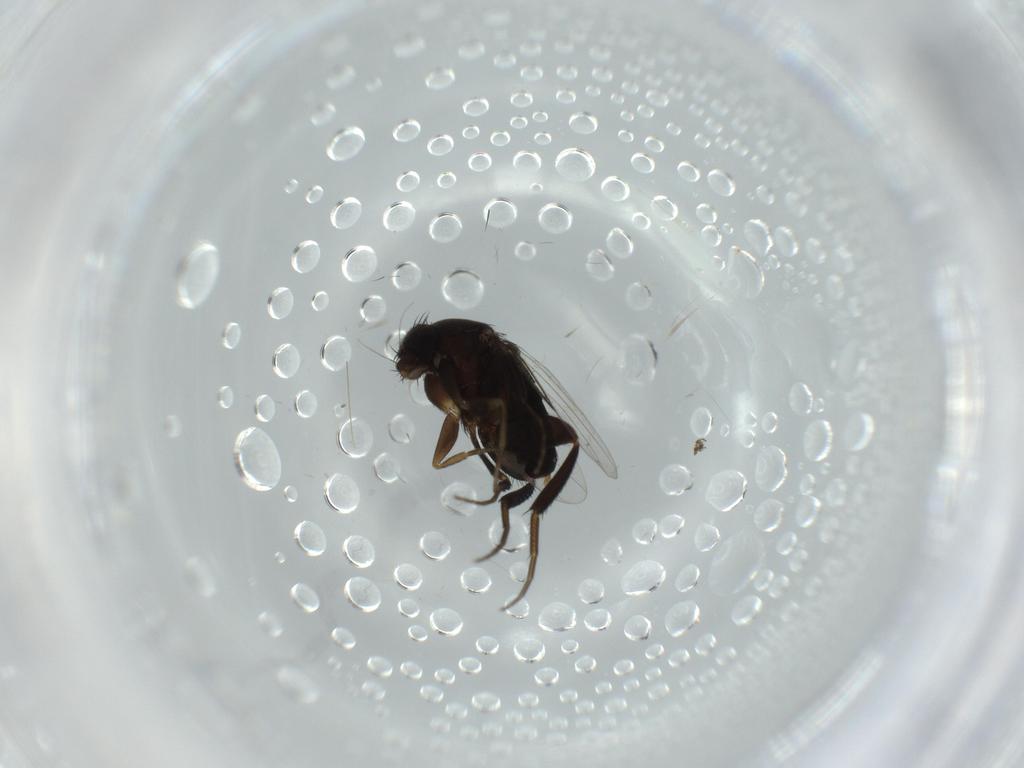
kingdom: Animalia
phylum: Arthropoda
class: Insecta
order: Diptera
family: Phoridae
